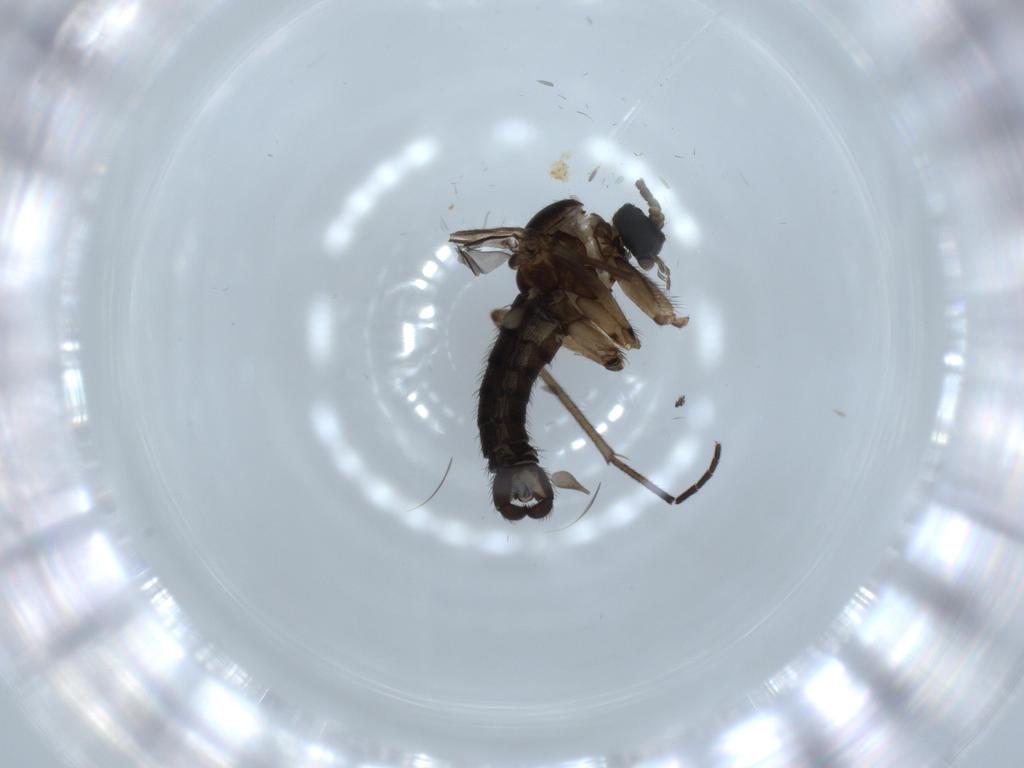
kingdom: Animalia
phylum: Arthropoda
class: Insecta
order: Diptera
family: Sciaridae
